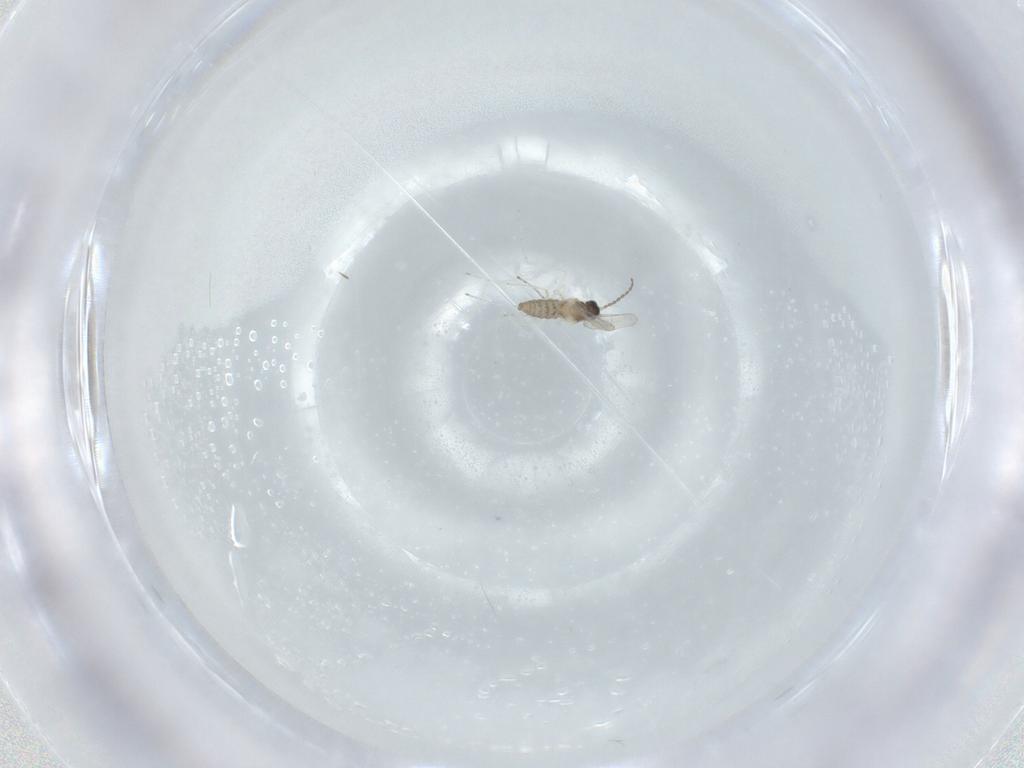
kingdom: Animalia
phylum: Arthropoda
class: Insecta
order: Diptera
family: Cecidomyiidae
